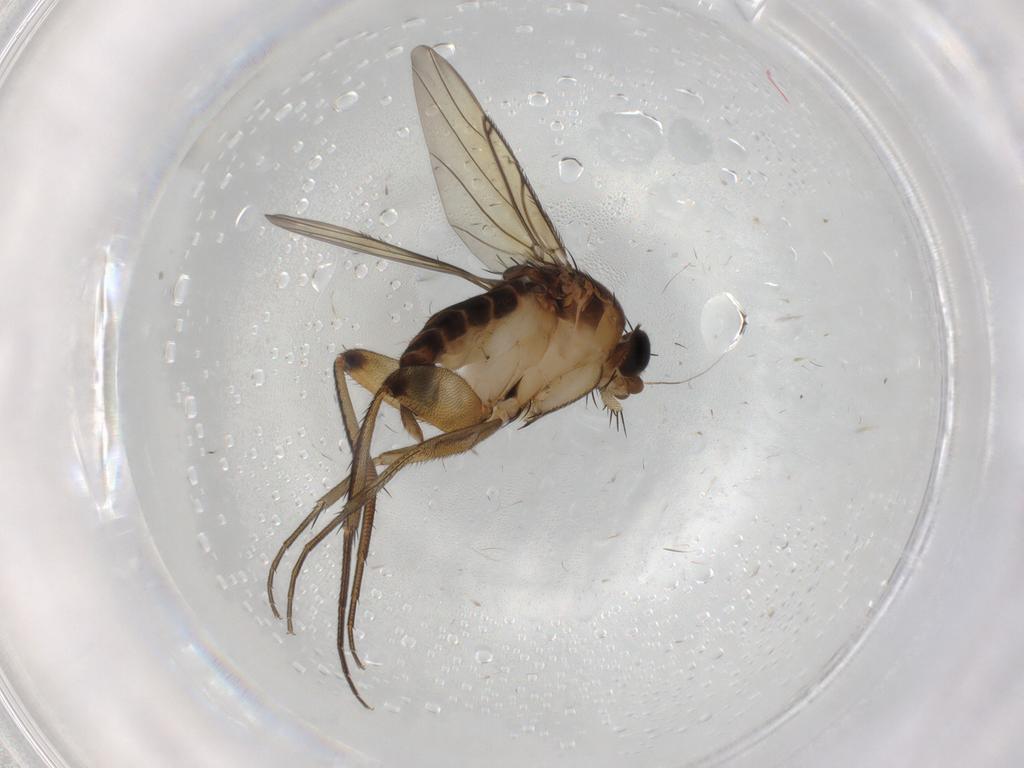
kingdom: Animalia
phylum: Arthropoda
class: Insecta
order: Diptera
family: Phoridae
